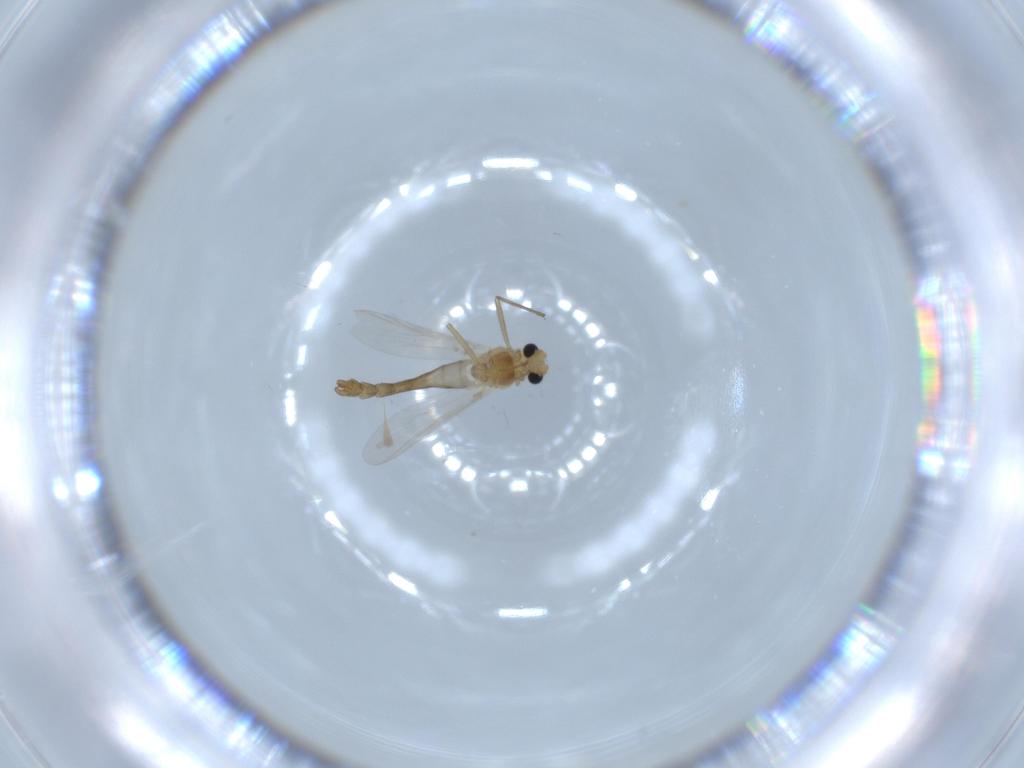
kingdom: Animalia
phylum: Arthropoda
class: Insecta
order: Diptera
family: Chironomidae
